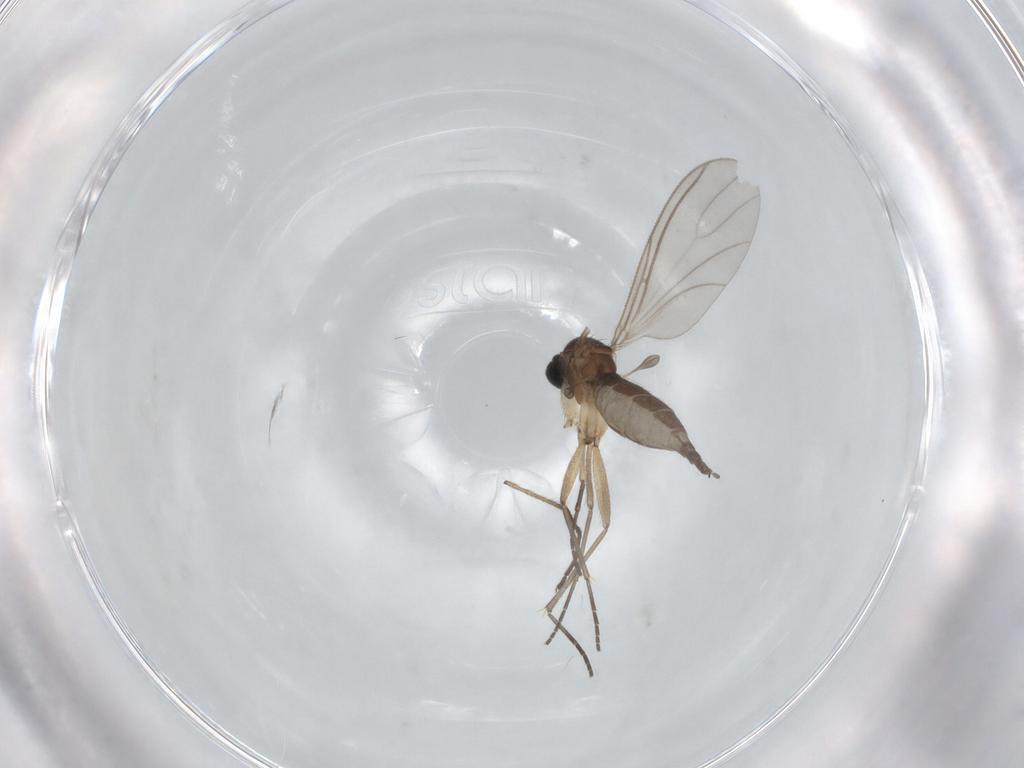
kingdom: Animalia
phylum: Arthropoda
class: Insecta
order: Diptera
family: Sciaridae
